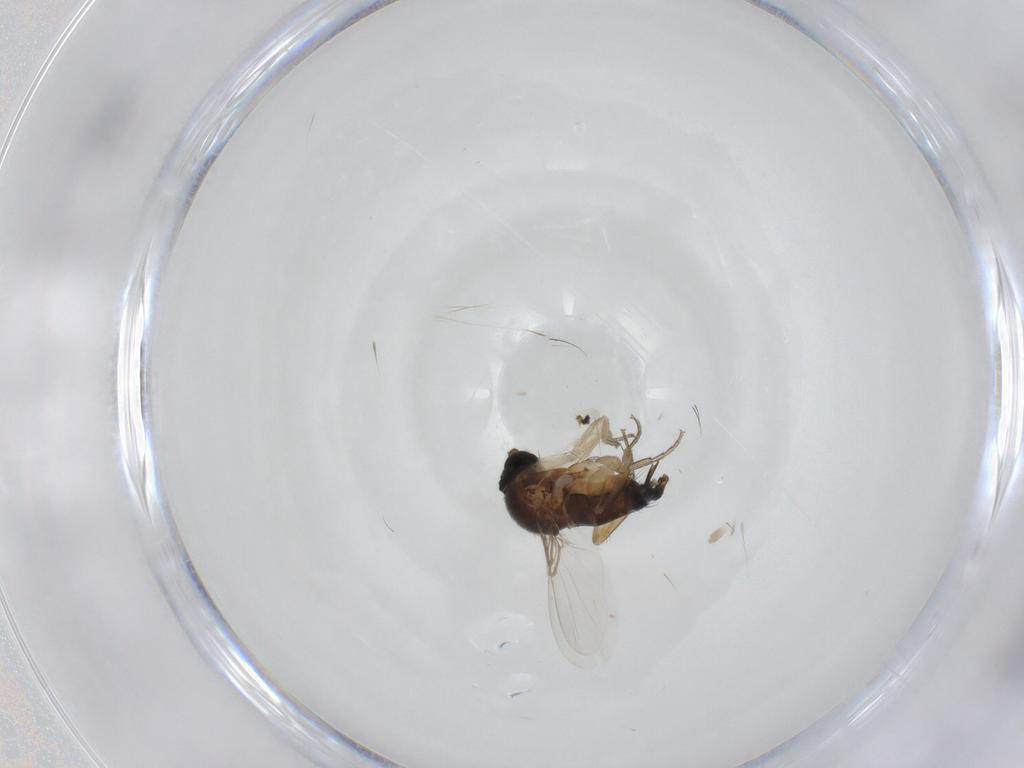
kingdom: Animalia
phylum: Arthropoda
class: Insecta
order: Diptera
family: Phoridae
